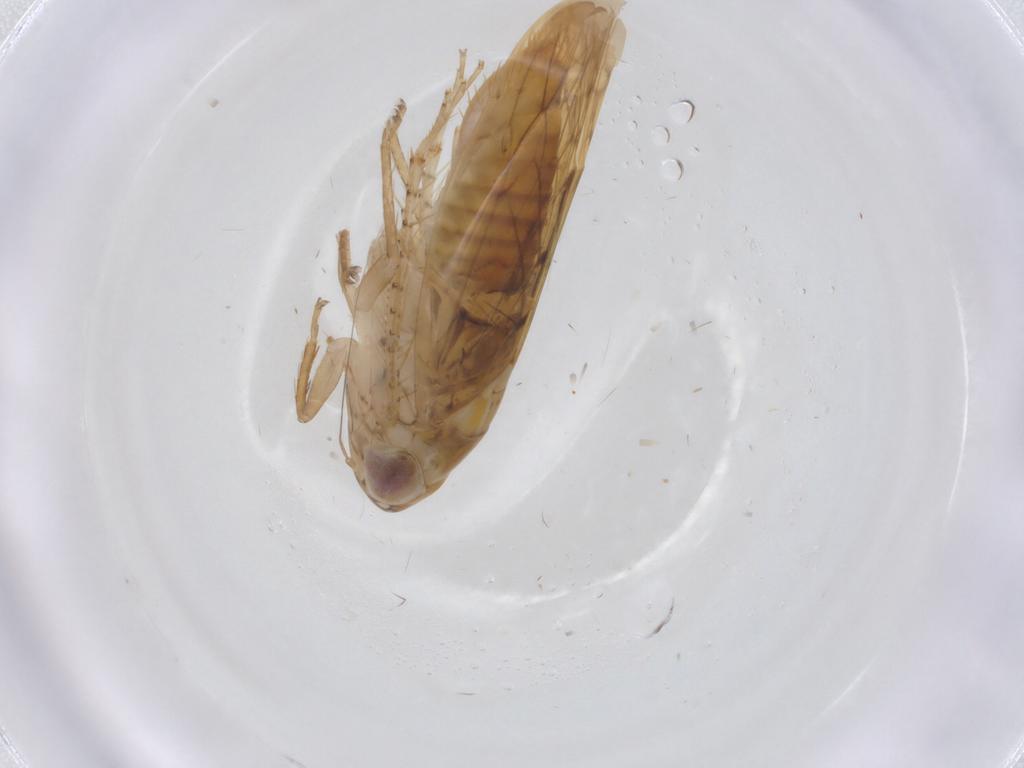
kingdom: Animalia
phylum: Arthropoda
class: Insecta
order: Hemiptera
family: Cicadellidae
